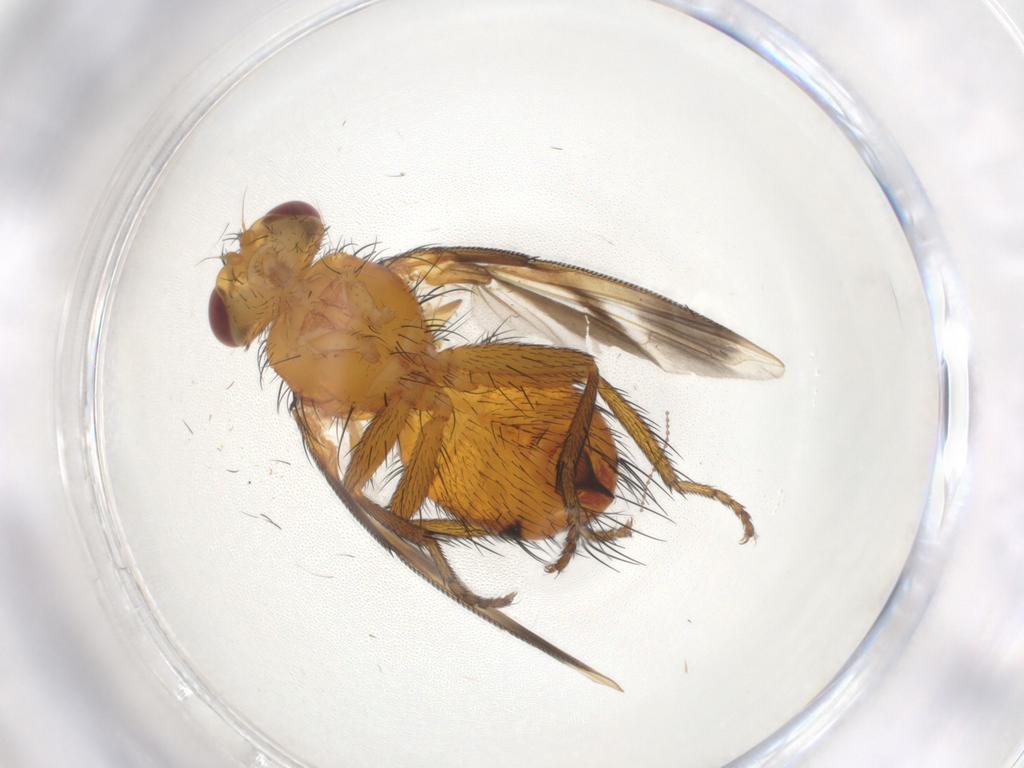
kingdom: Animalia
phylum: Arthropoda
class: Insecta
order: Diptera
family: Tachinidae
